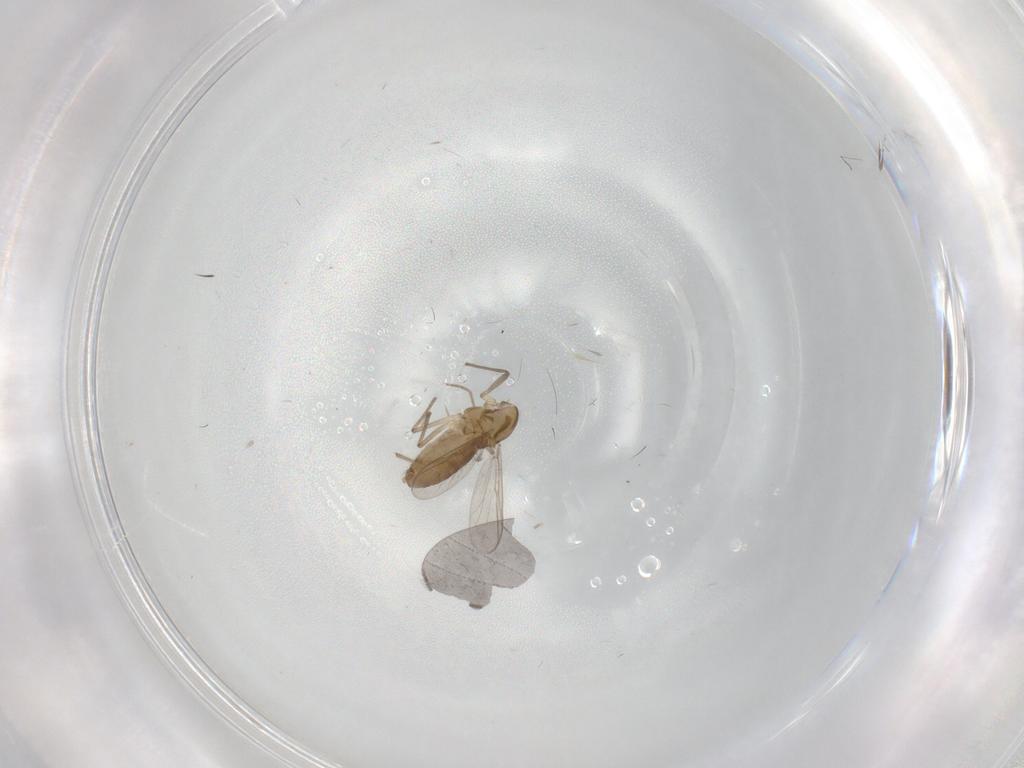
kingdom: Animalia
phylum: Arthropoda
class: Insecta
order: Diptera
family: Chironomidae
